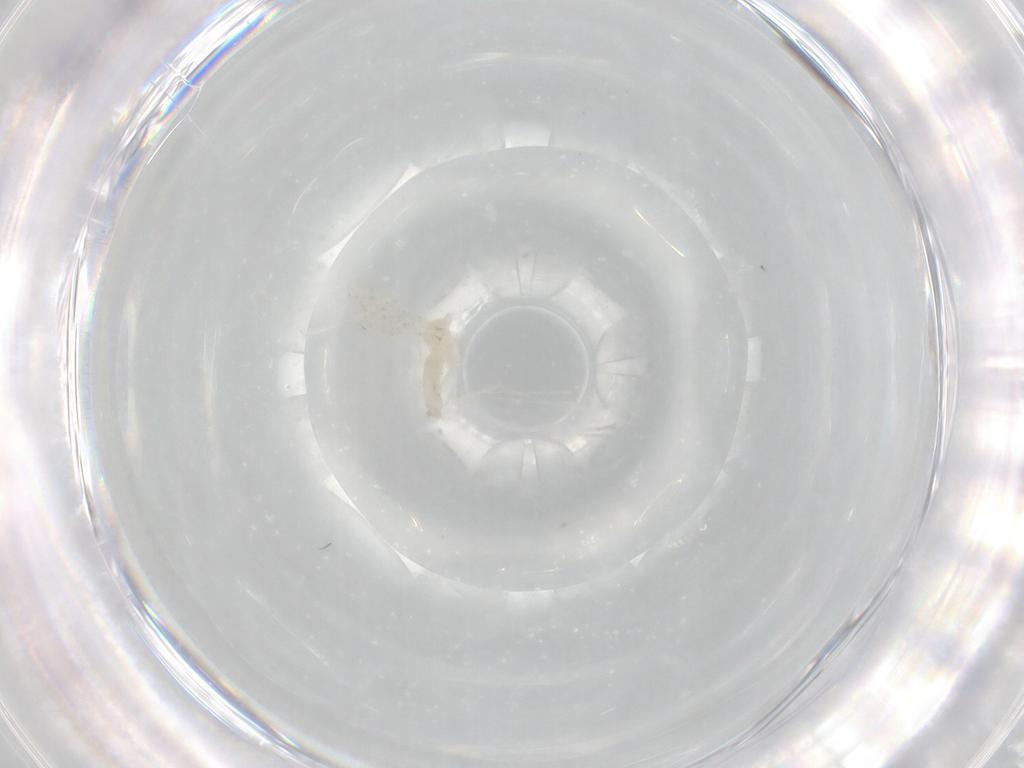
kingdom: Animalia
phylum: Arthropoda
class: Insecta
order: Diptera
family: Cecidomyiidae
